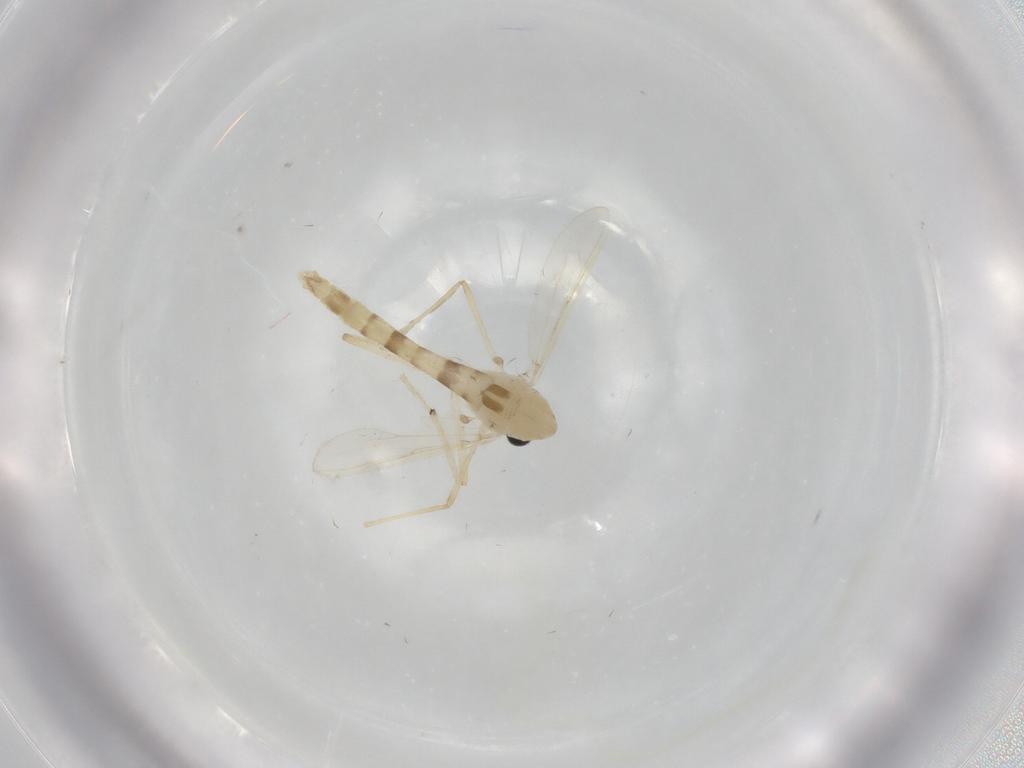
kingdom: Animalia
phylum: Arthropoda
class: Insecta
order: Diptera
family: Chironomidae
